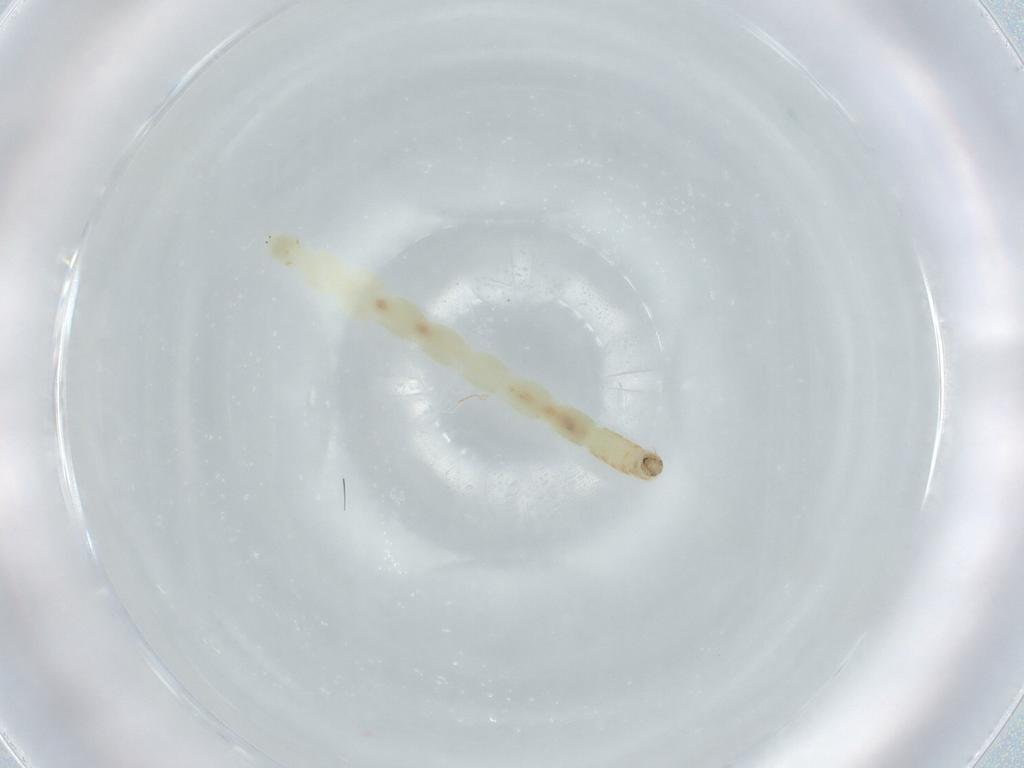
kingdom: Animalia
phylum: Arthropoda
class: Insecta
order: Diptera
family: Chironomidae
